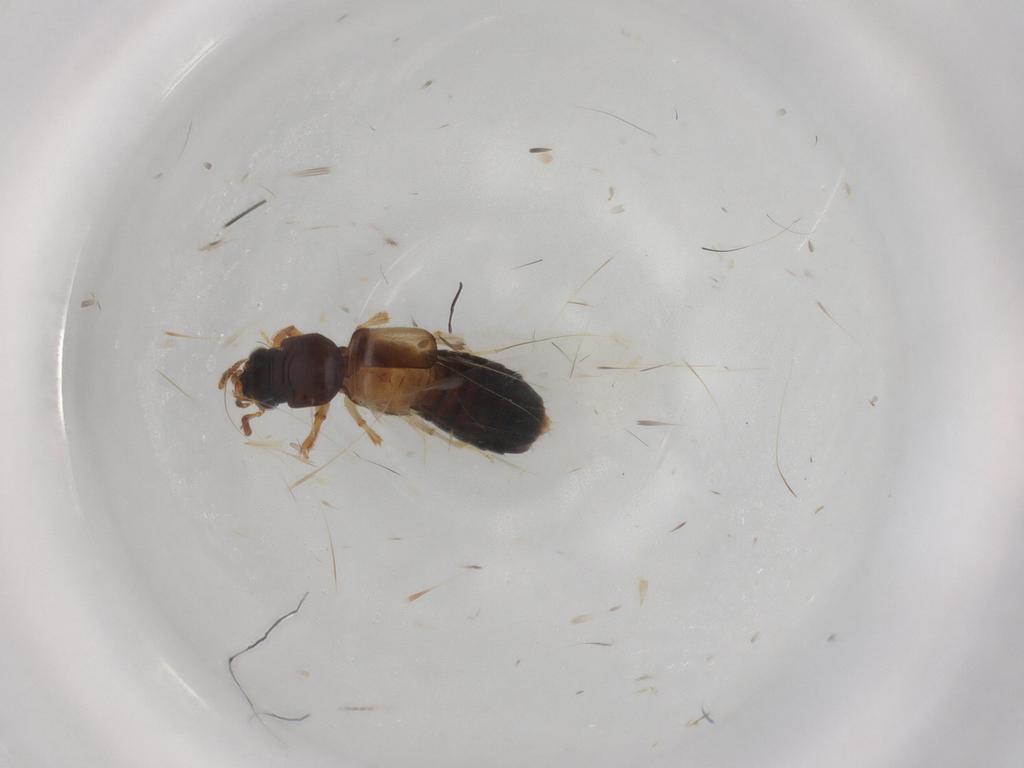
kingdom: Animalia
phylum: Arthropoda
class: Insecta
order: Coleoptera
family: Staphylinidae
